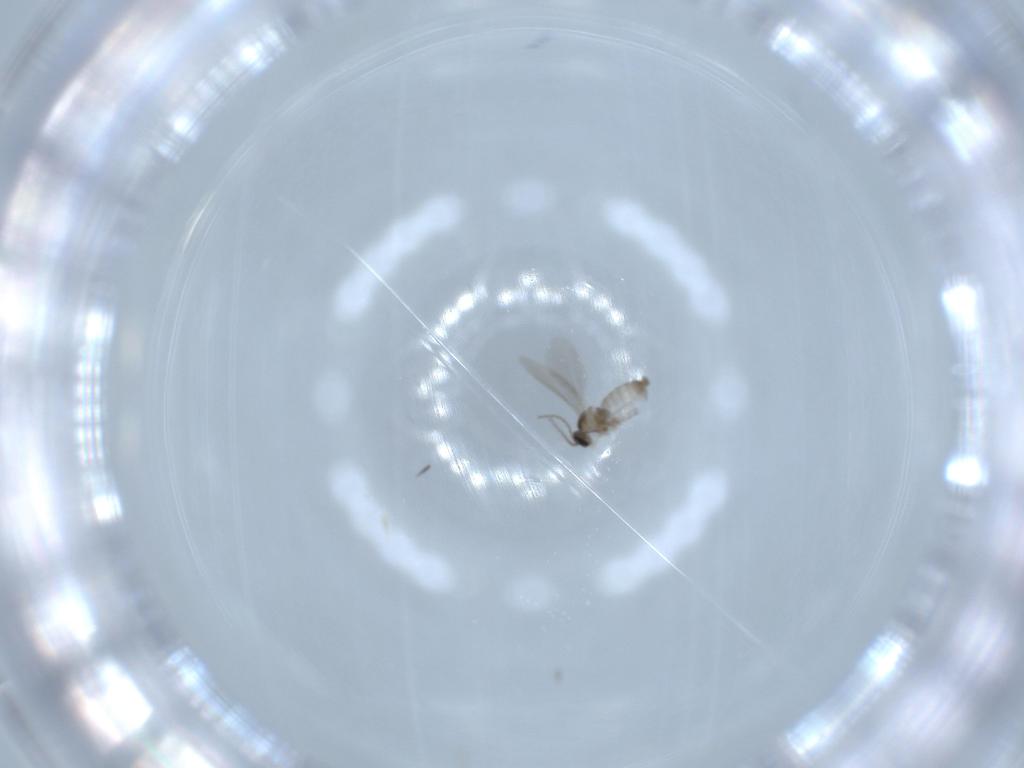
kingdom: Animalia
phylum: Arthropoda
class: Insecta
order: Diptera
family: Cecidomyiidae
